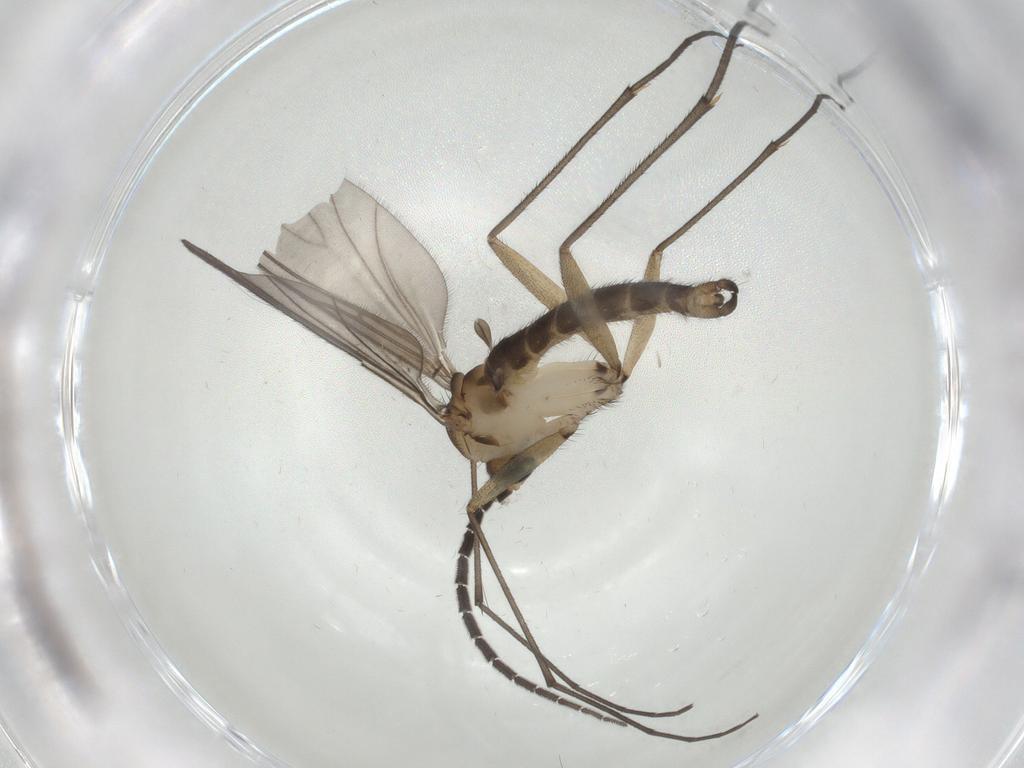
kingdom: Animalia
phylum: Arthropoda
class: Insecta
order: Diptera
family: Sciaridae
